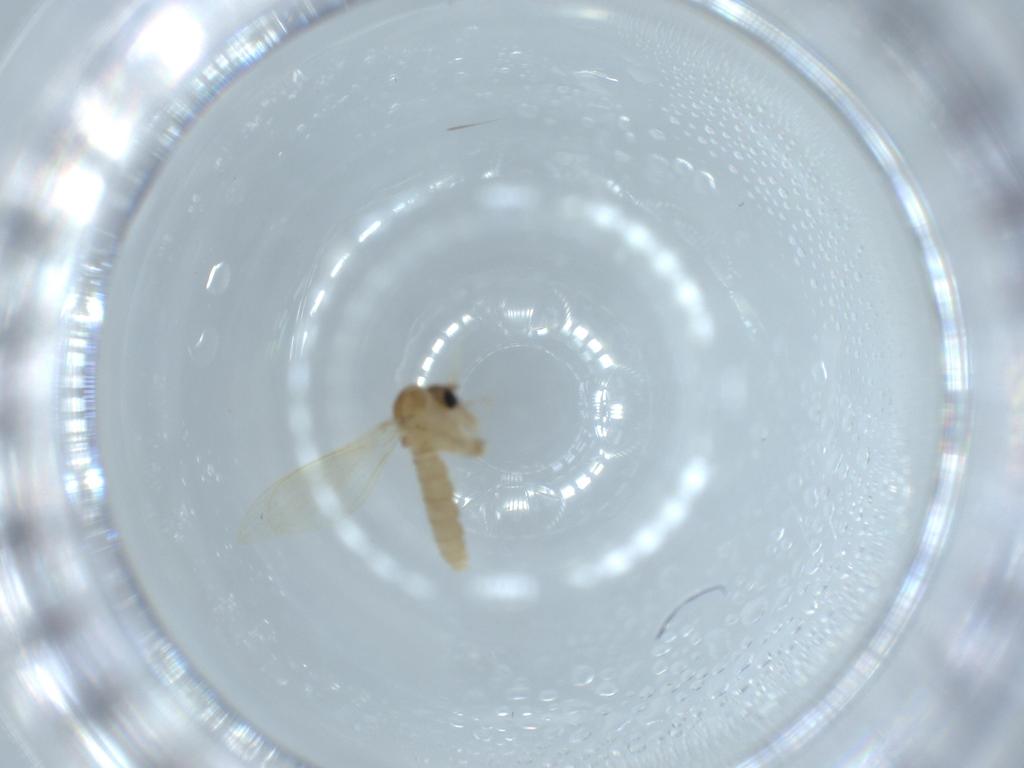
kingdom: Animalia
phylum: Arthropoda
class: Insecta
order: Diptera
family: Psychodidae
